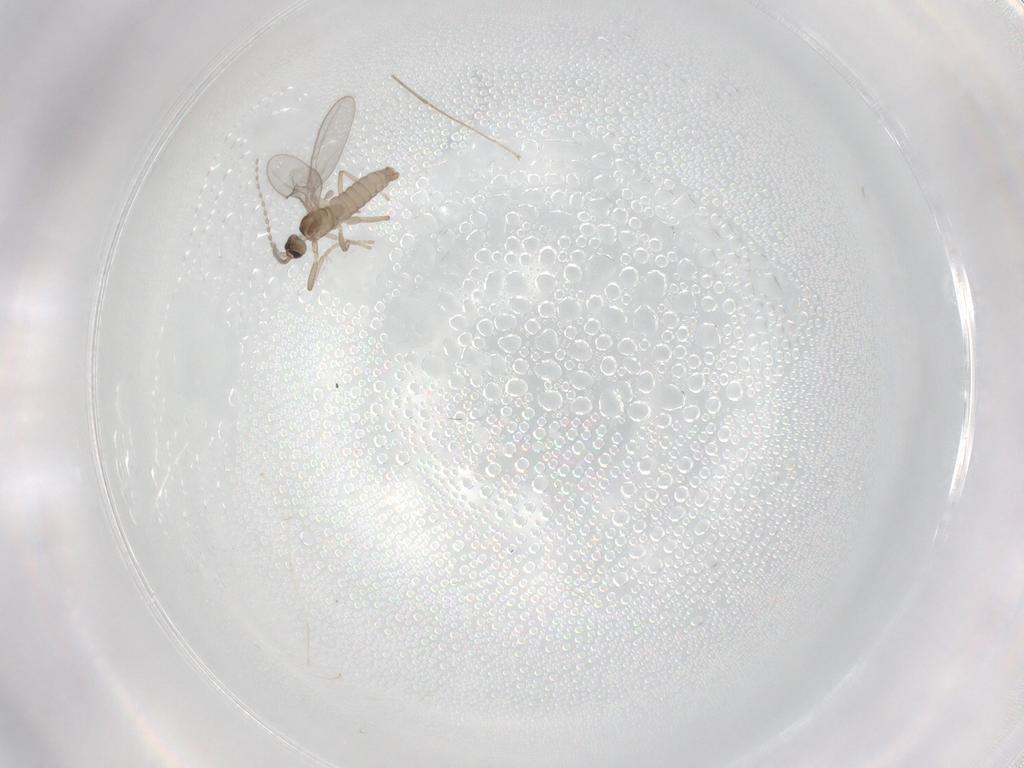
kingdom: Animalia
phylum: Arthropoda
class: Insecta
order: Diptera
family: Cecidomyiidae
